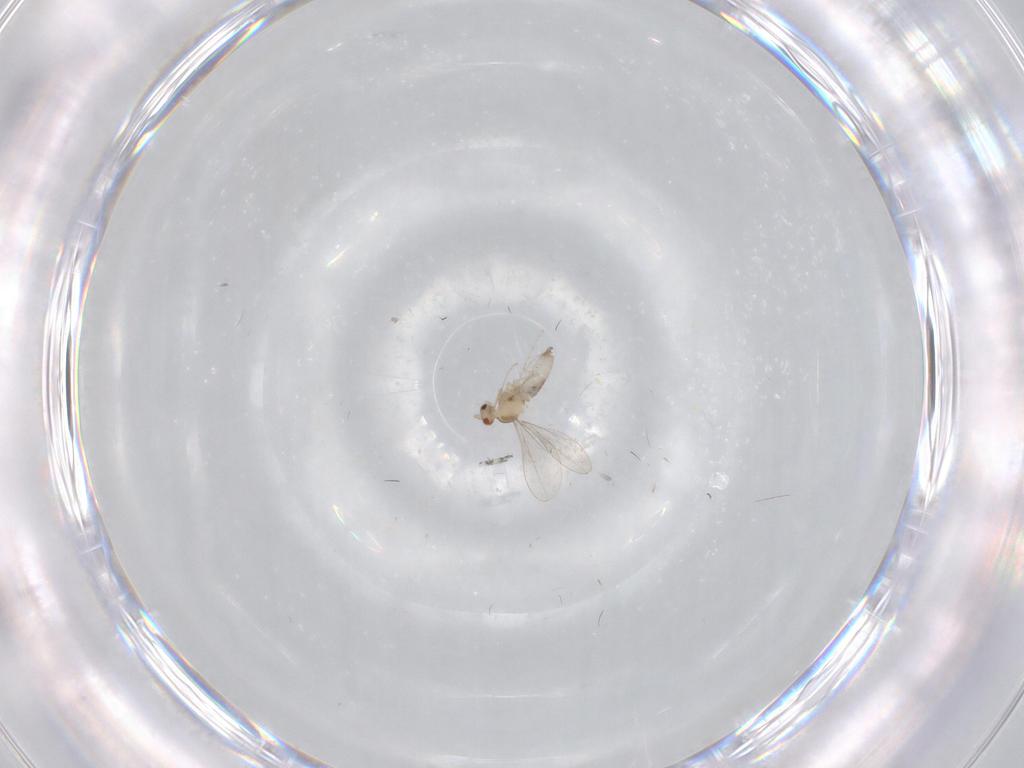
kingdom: Animalia
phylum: Arthropoda
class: Insecta
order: Diptera
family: Cecidomyiidae
